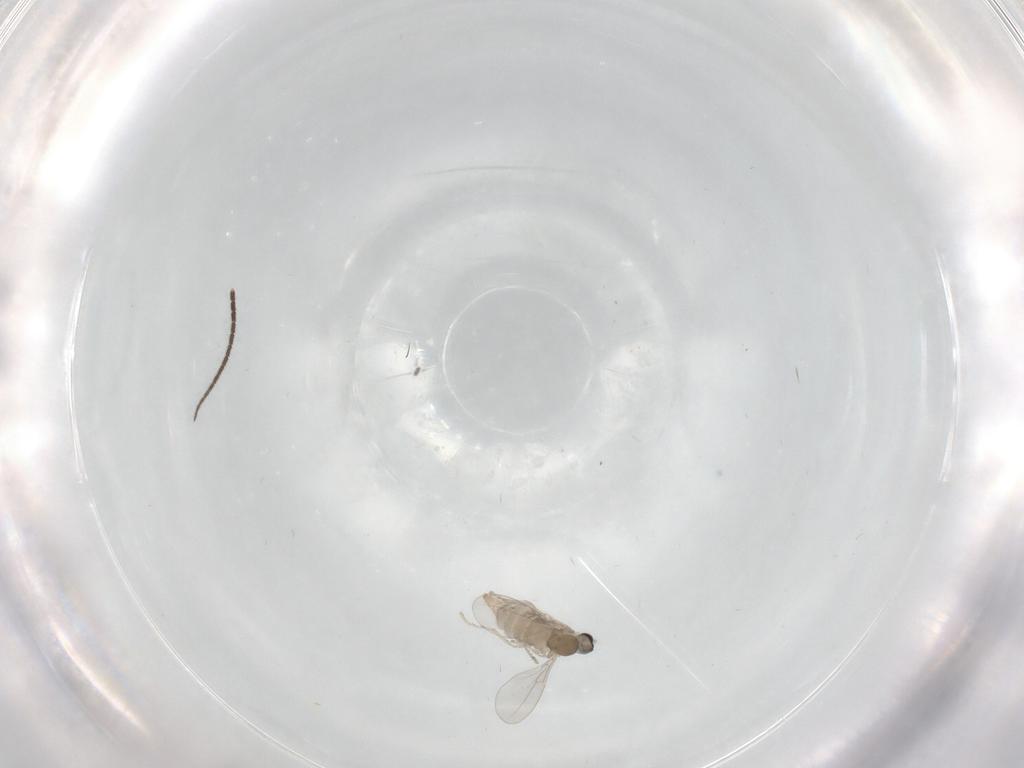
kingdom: Animalia
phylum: Arthropoda
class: Insecta
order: Diptera
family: Cecidomyiidae
